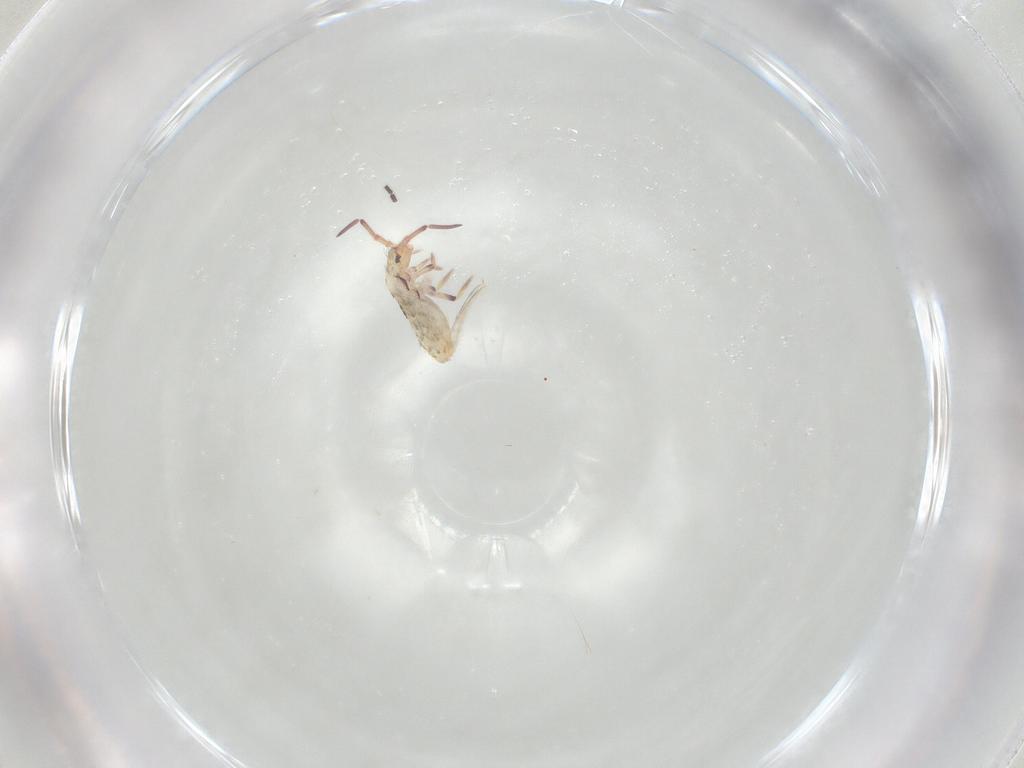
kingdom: Animalia
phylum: Arthropoda
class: Collembola
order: Entomobryomorpha
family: Entomobryidae
